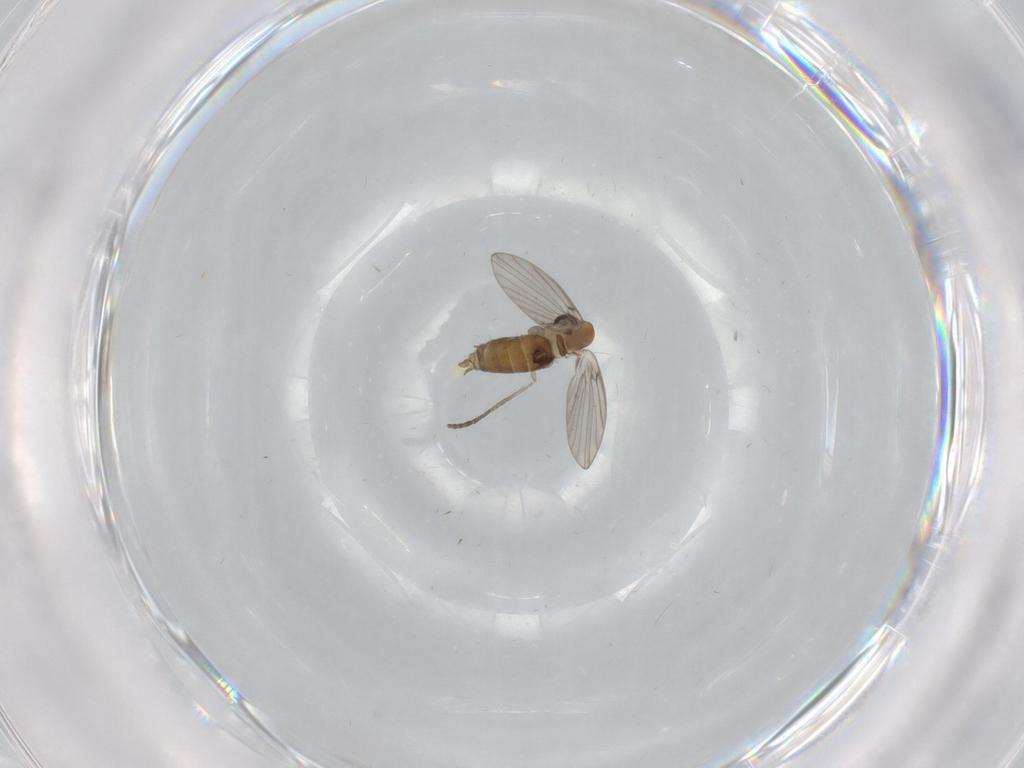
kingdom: Animalia
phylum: Arthropoda
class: Insecta
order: Diptera
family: Psychodidae
